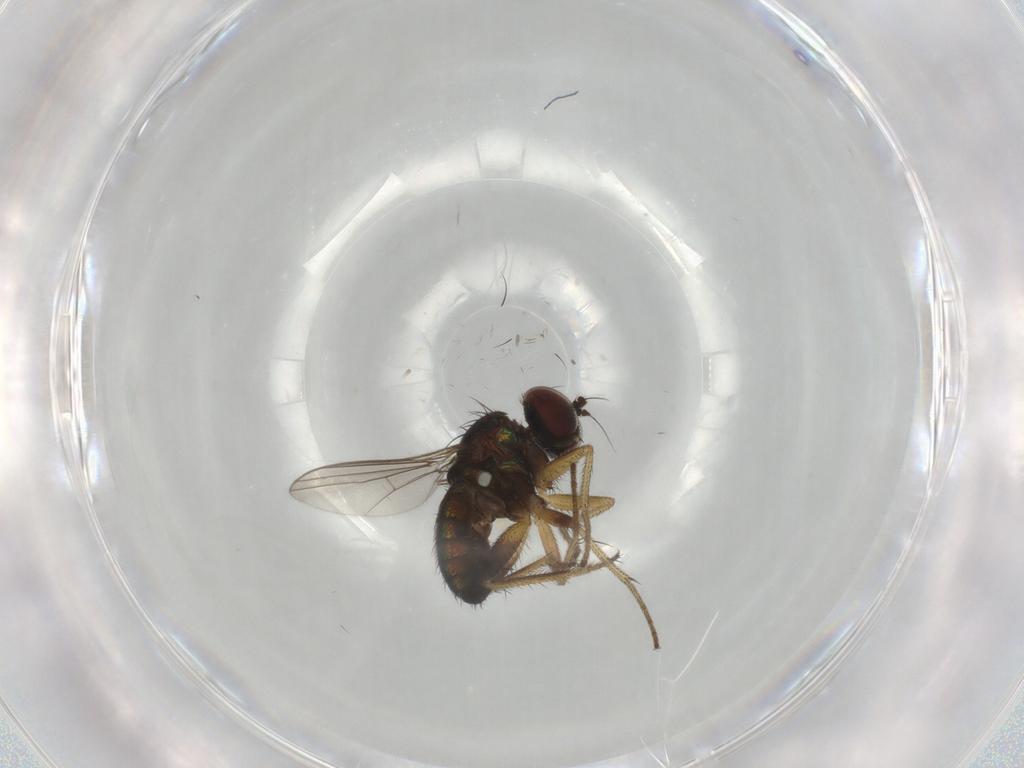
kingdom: Animalia
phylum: Arthropoda
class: Insecta
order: Diptera
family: Dolichopodidae
